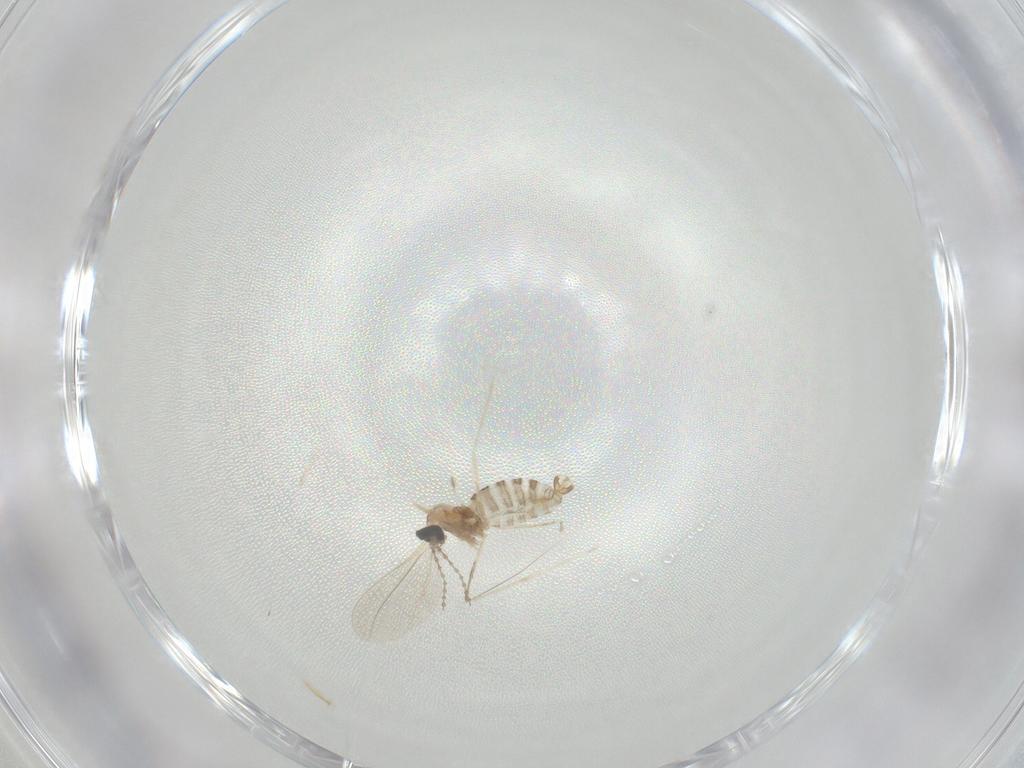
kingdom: Animalia
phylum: Arthropoda
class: Insecta
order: Diptera
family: Cecidomyiidae
